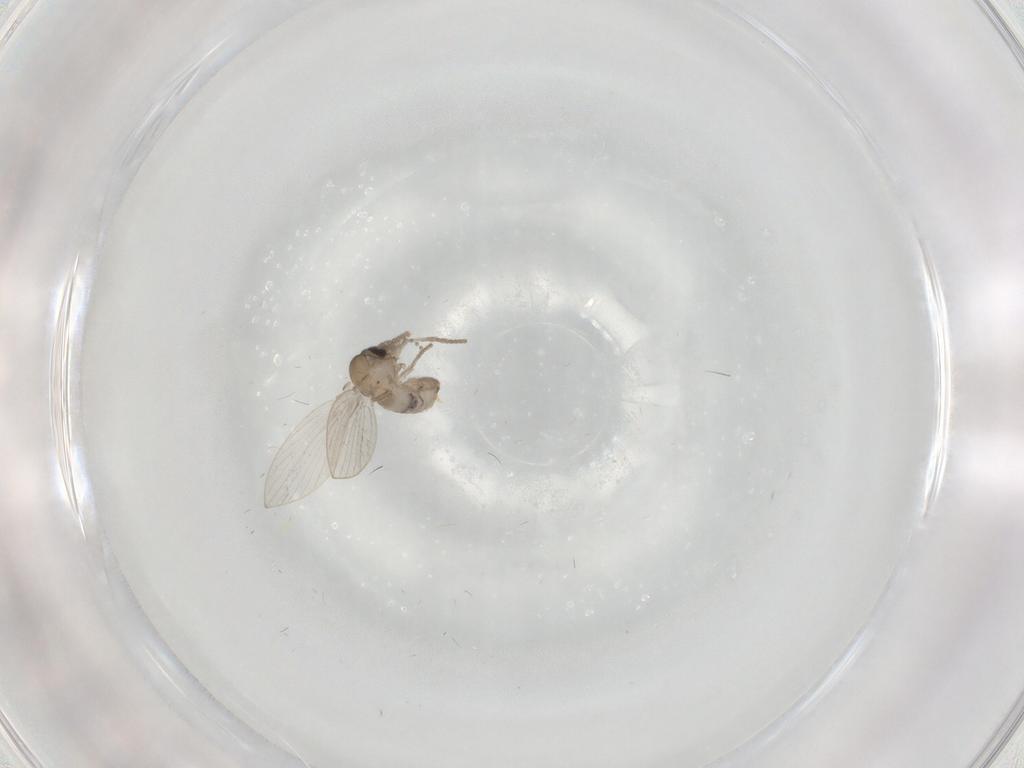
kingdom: Animalia
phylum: Arthropoda
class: Insecta
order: Diptera
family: Psychodidae
